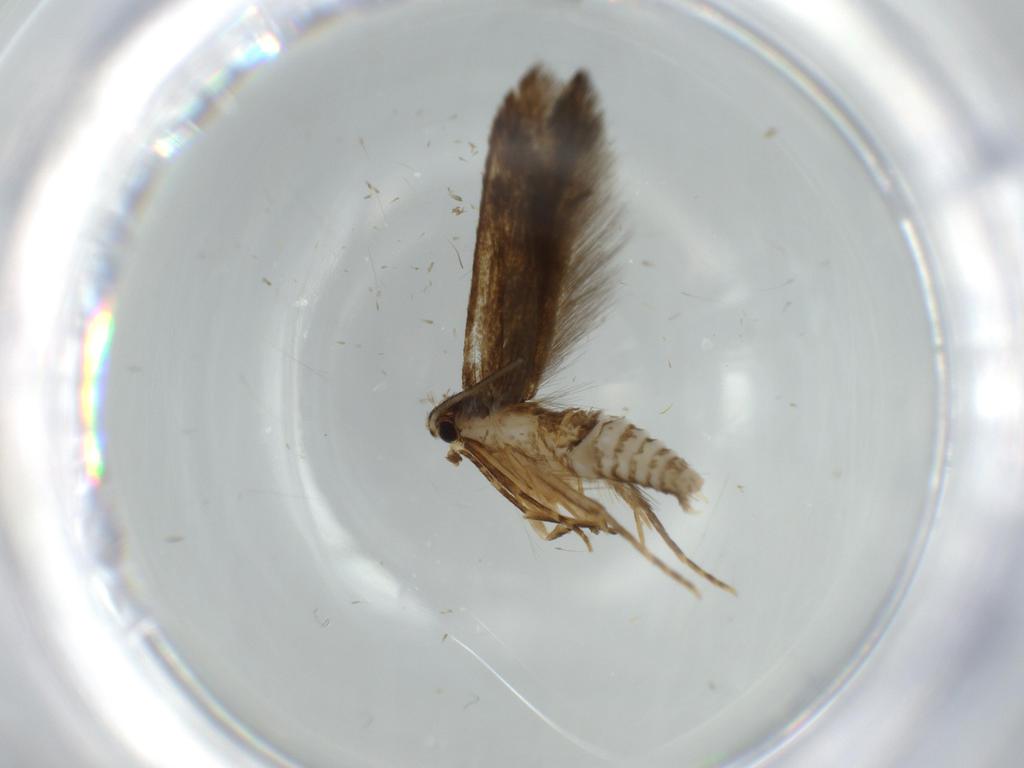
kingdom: Animalia
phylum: Arthropoda
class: Insecta
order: Lepidoptera
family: Tineidae
